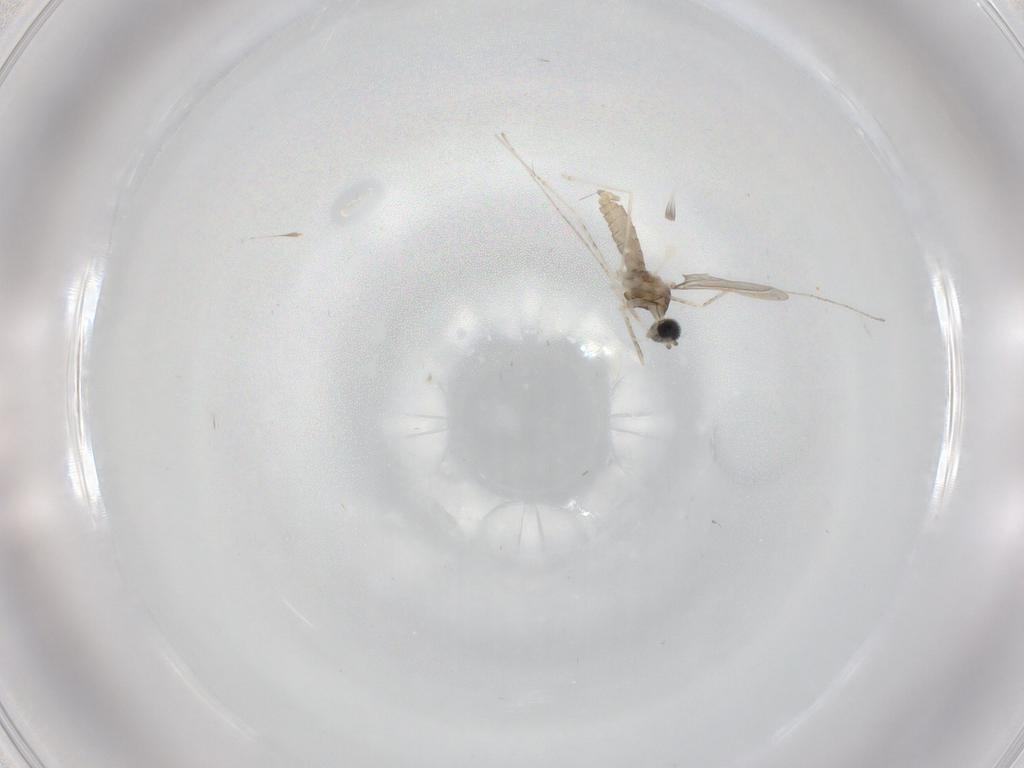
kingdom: Animalia
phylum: Arthropoda
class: Insecta
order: Diptera
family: Cecidomyiidae
